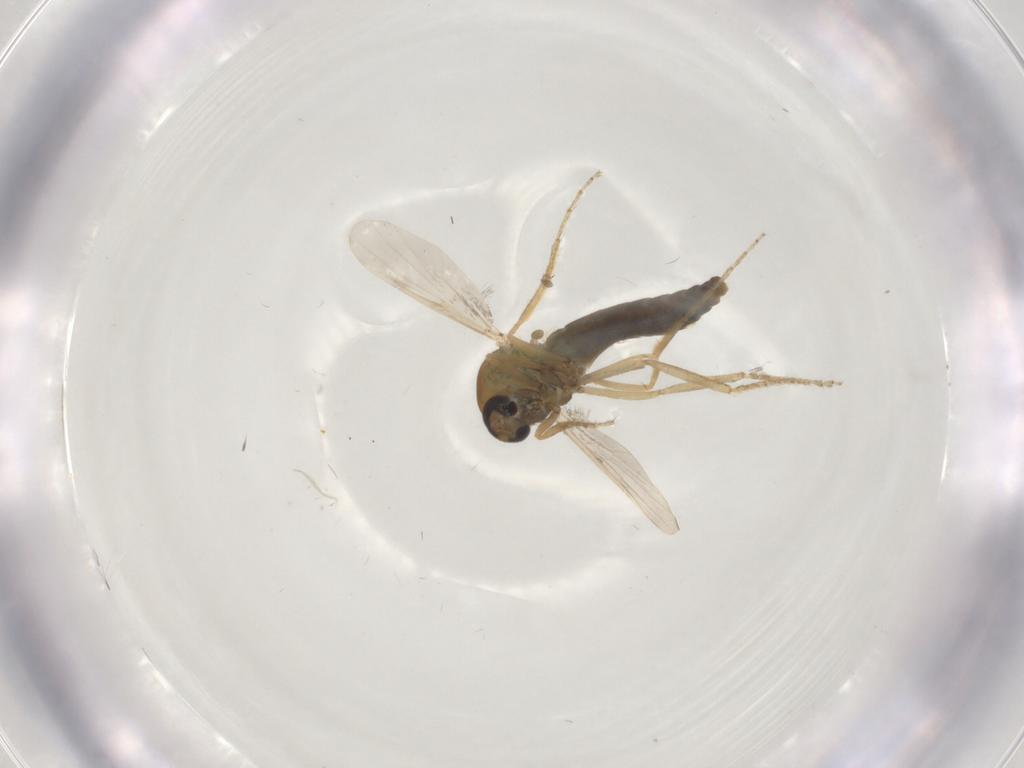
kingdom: Animalia
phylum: Arthropoda
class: Insecta
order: Diptera
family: Ceratopogonidae
